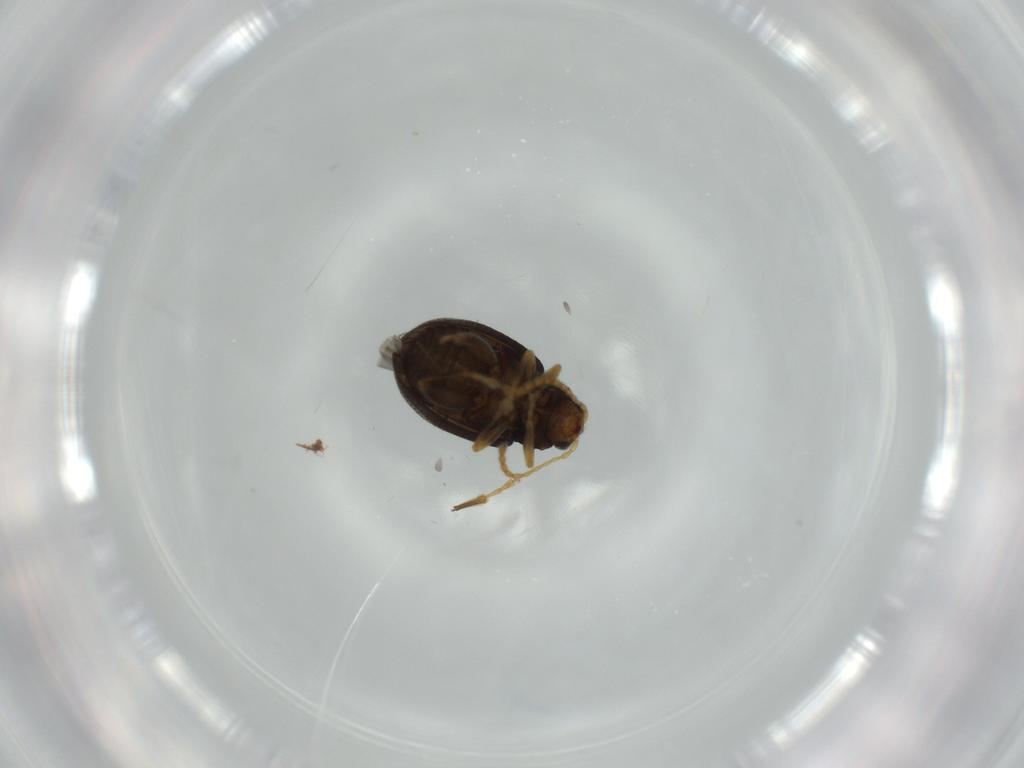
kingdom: Animalia
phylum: Arthropoda
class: Insecta
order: Coleoptera
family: Chrysomelidae
